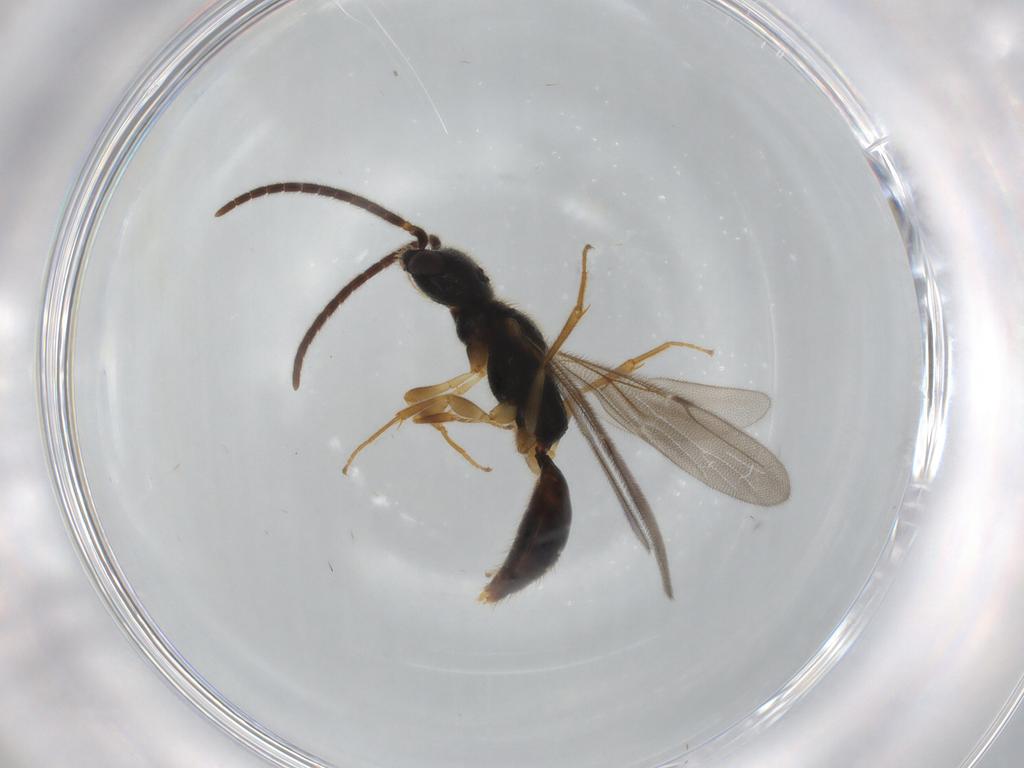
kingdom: Animalia
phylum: Arthropoda
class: Insecta
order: Hymenoptera
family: Bethylidae
